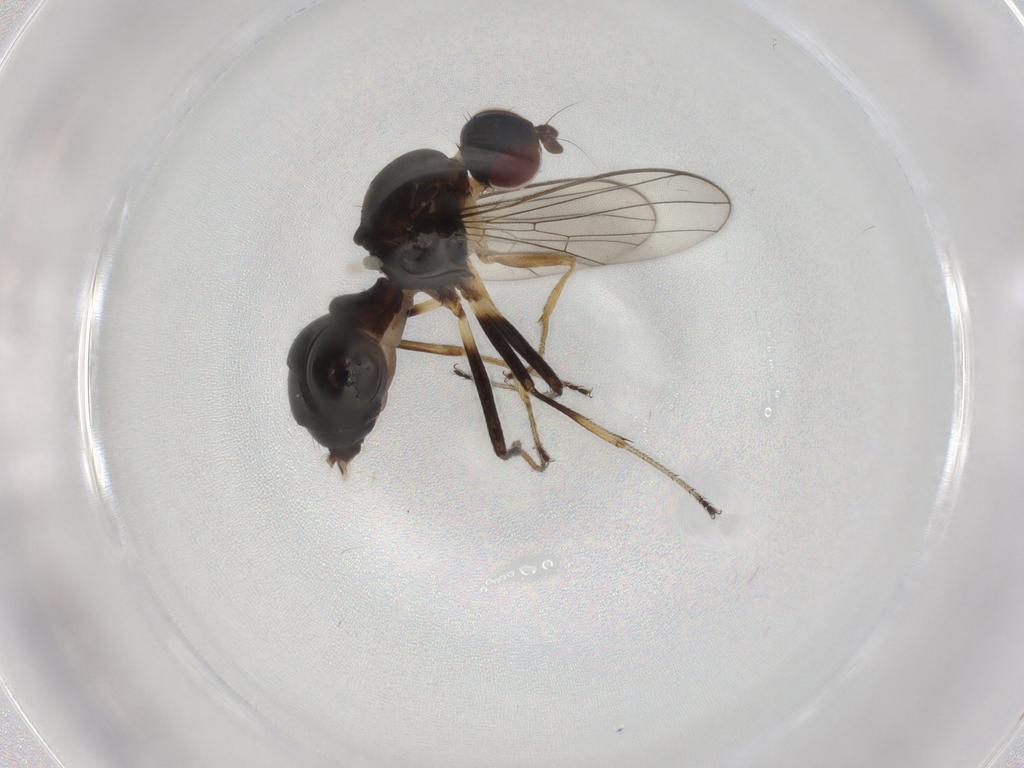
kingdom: Animalia
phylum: Arthropoda
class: Insecta
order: Diptera
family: Sepsidae
